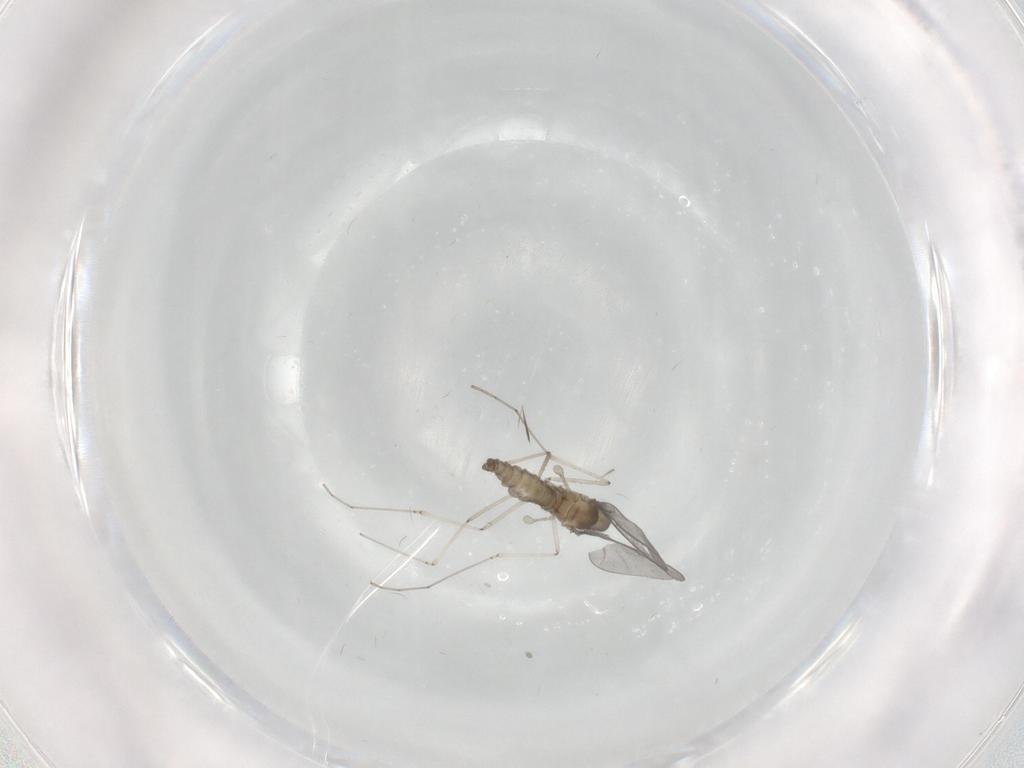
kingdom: Animalia
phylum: Arthropoda
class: Insecta
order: Diptera
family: Cecidomyiidae
